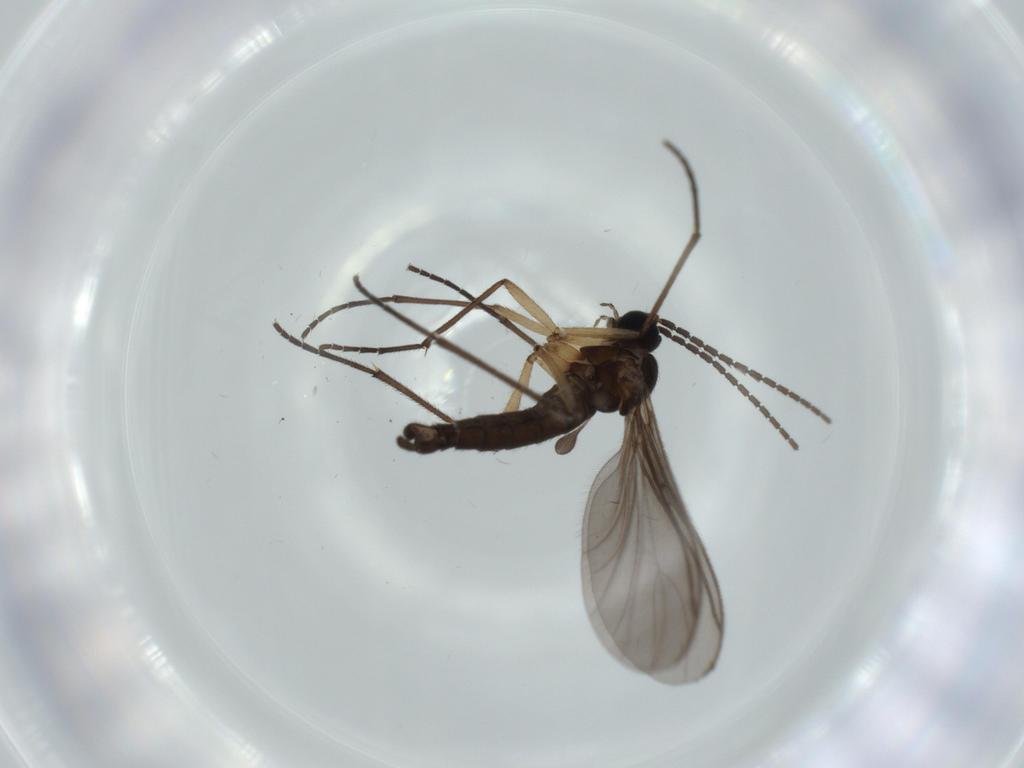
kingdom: Animalia
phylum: Arthropoda
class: Insecta
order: Diptera
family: Sciaridae
